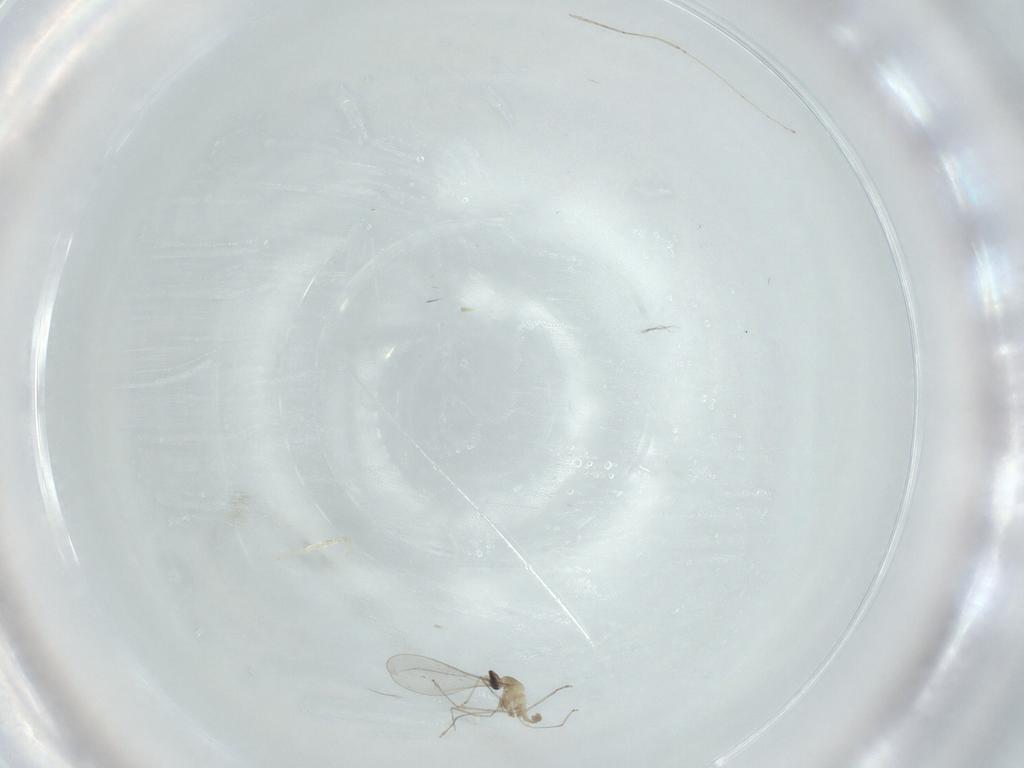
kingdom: Animalia
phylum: Arthropoda
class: Insecta
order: Diptera
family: Cecidomyiidae
